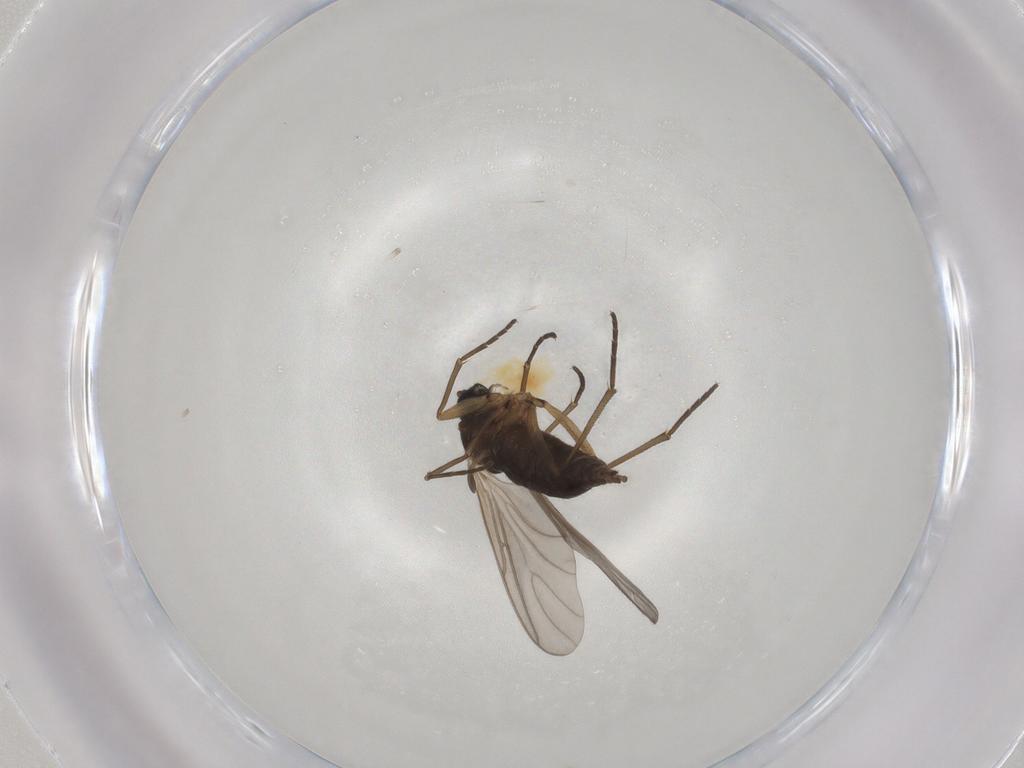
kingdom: Animalia
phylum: Arthropoda
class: Insecta
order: Diptera
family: Sciaridae
